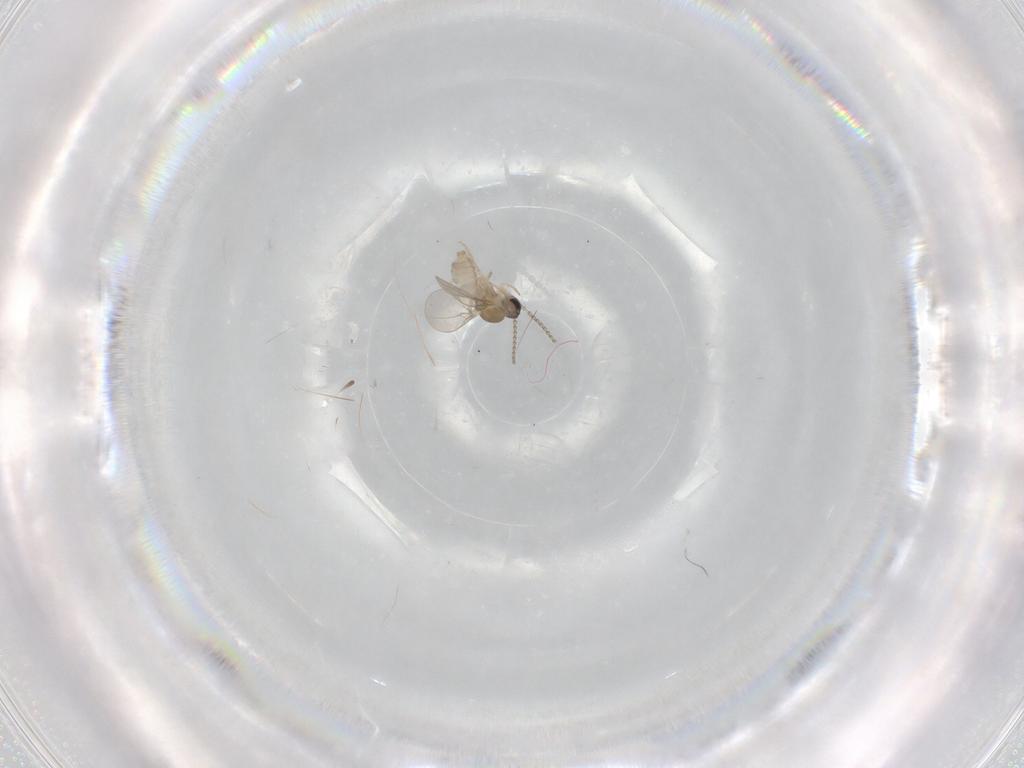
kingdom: Animalia
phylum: Arthropoda
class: Insecta
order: Diptera
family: Cecidomyiidae
